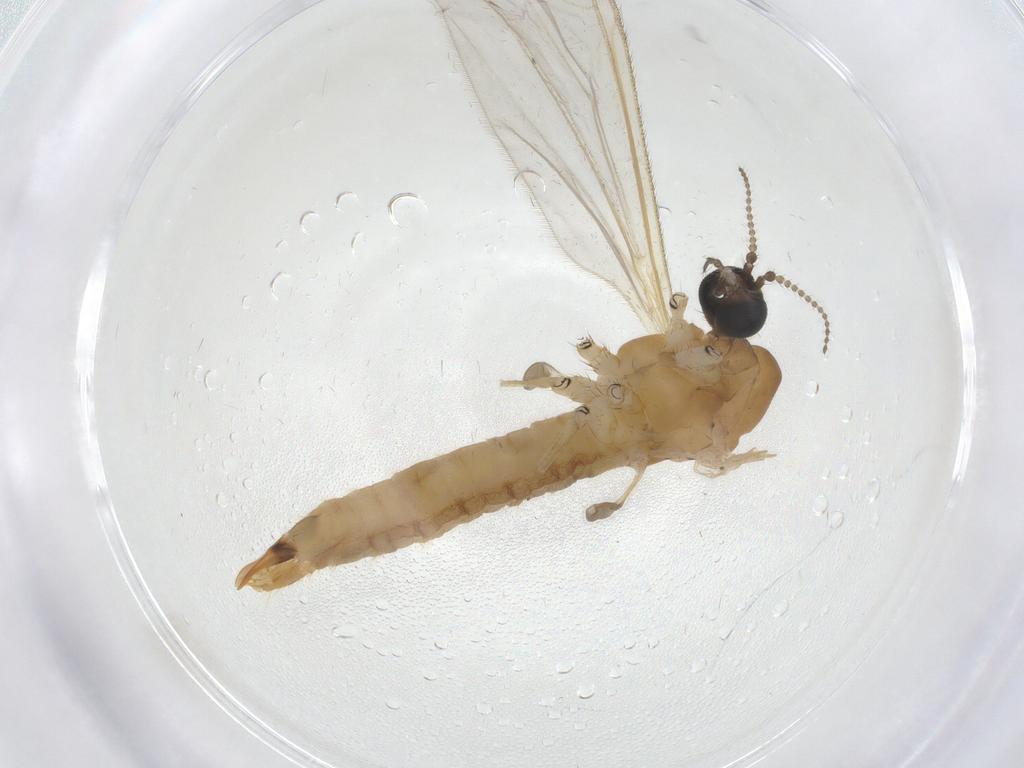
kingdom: Animalia
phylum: Arthropoda
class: Insecta
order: Diptera
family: Limoniidae
